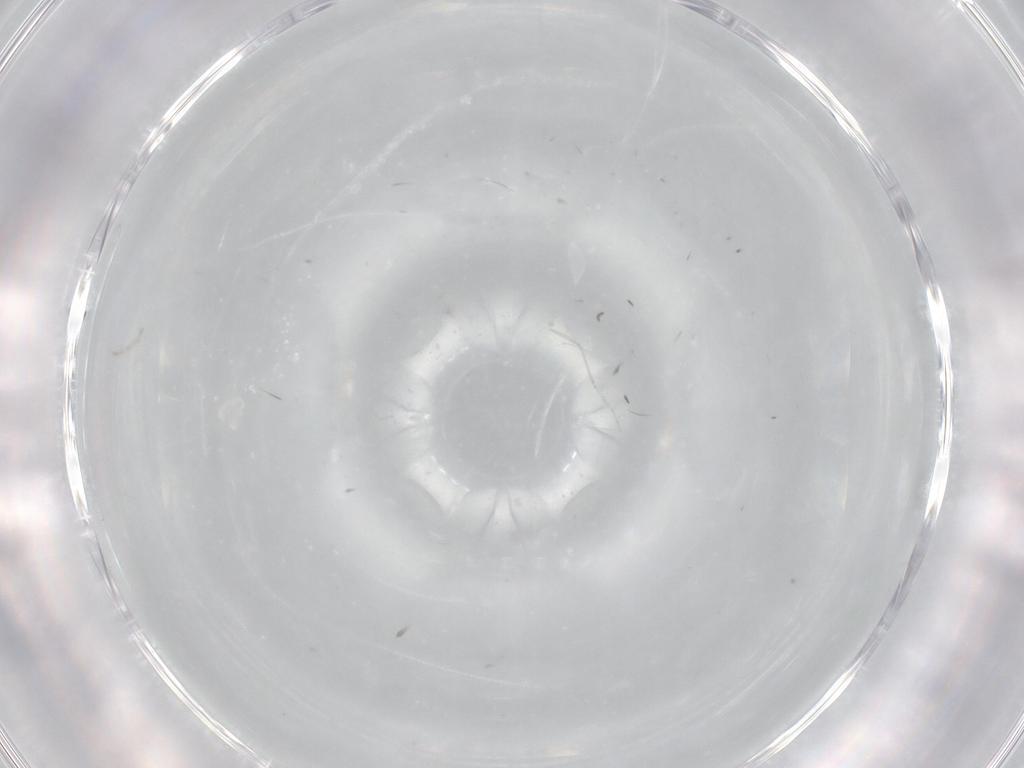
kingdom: Animalia
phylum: Arthropoda
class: Insecta
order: Diptera
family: Cecidomyiidae
